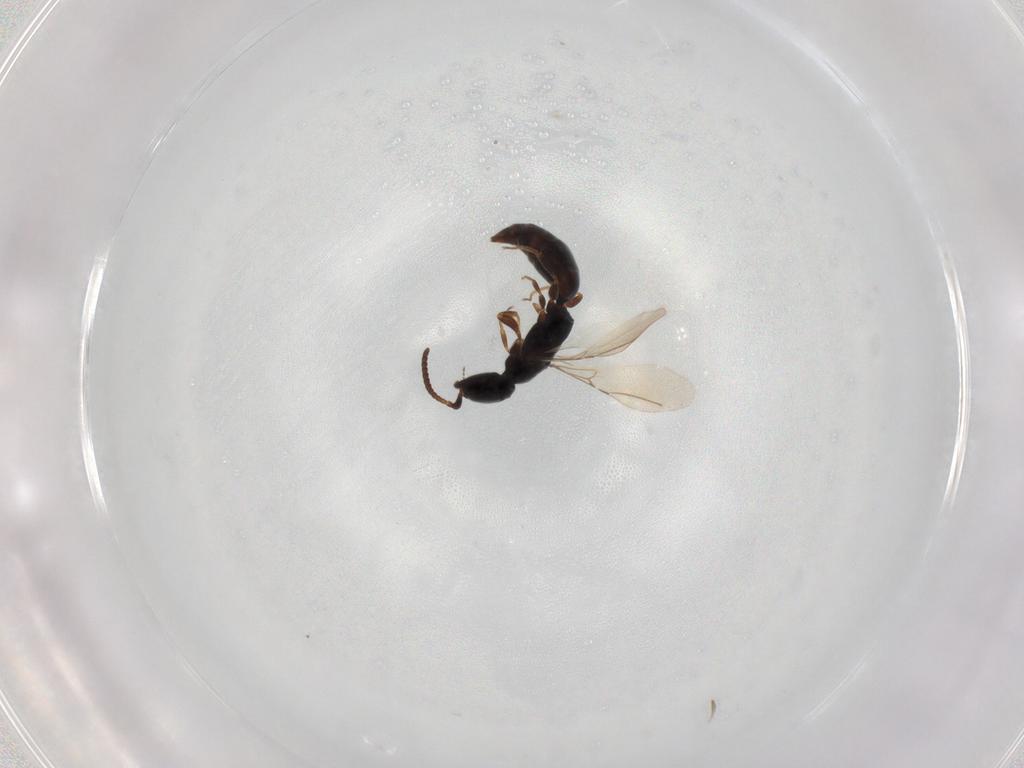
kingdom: Animalia
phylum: Arthropoda
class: Insecta
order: Hymenoptera
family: Bethylidae
